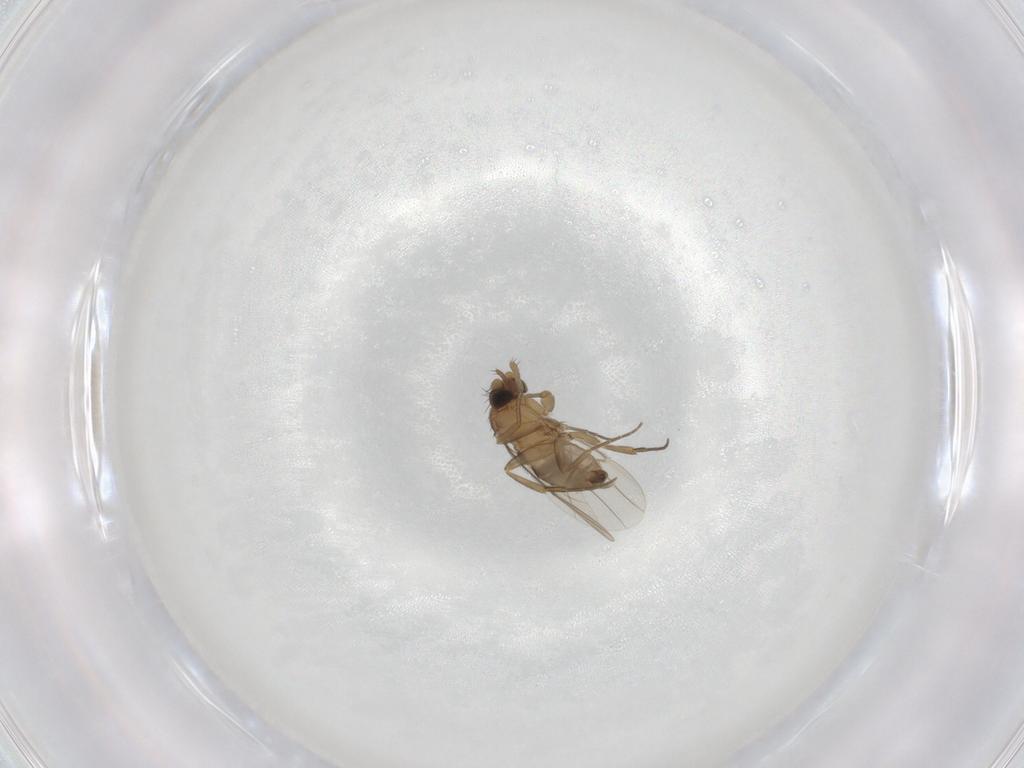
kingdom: Animalia
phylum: Arthropoda
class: Insecta
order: Diptera
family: Phoridae
